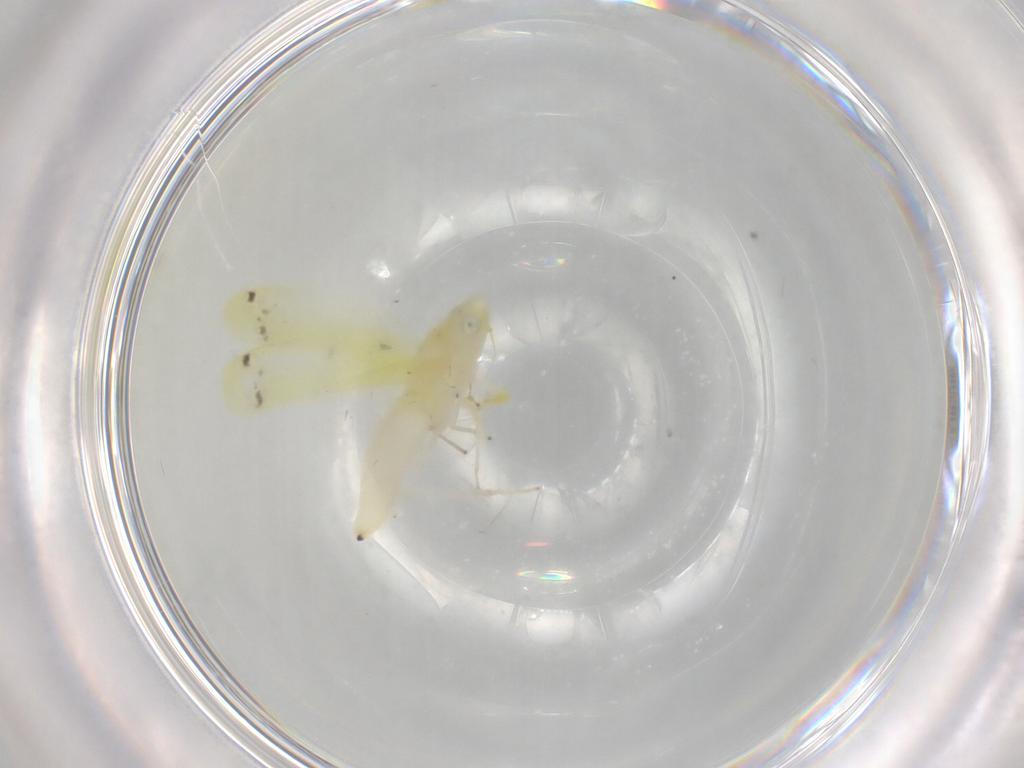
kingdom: Animalia
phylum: Arthropoda
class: Insecta
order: Hemiptera
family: Cicadellidae
